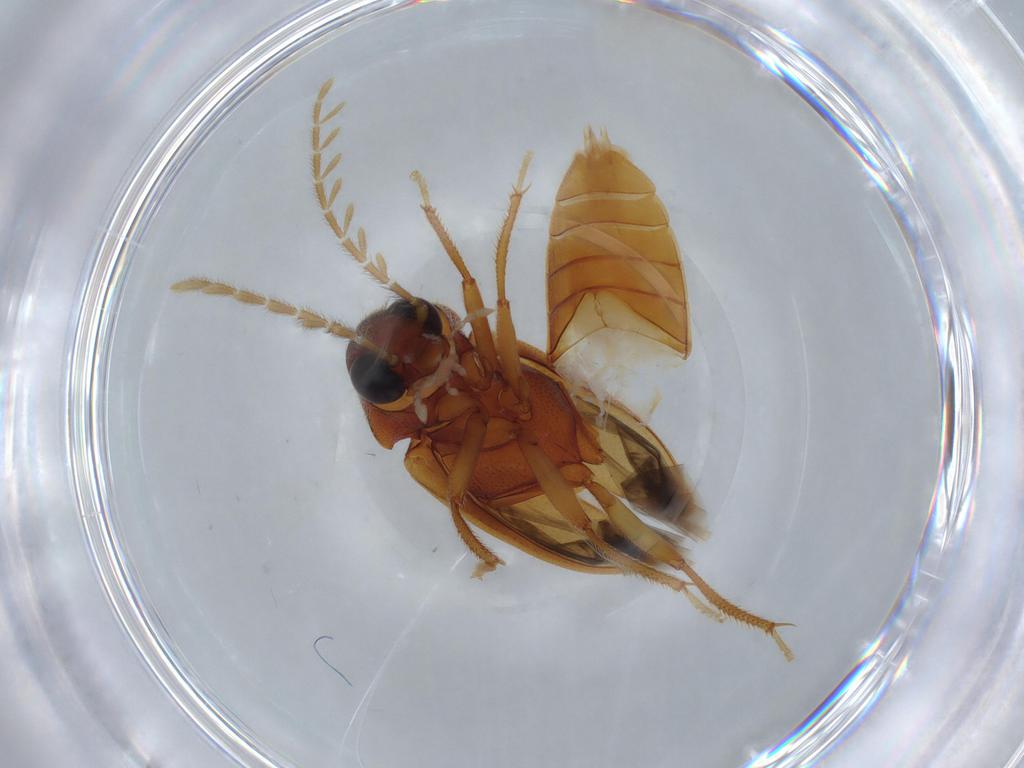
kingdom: Animalia
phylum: Arthropoda
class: Insecta
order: Coleoptera
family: Ptilodactylidae
